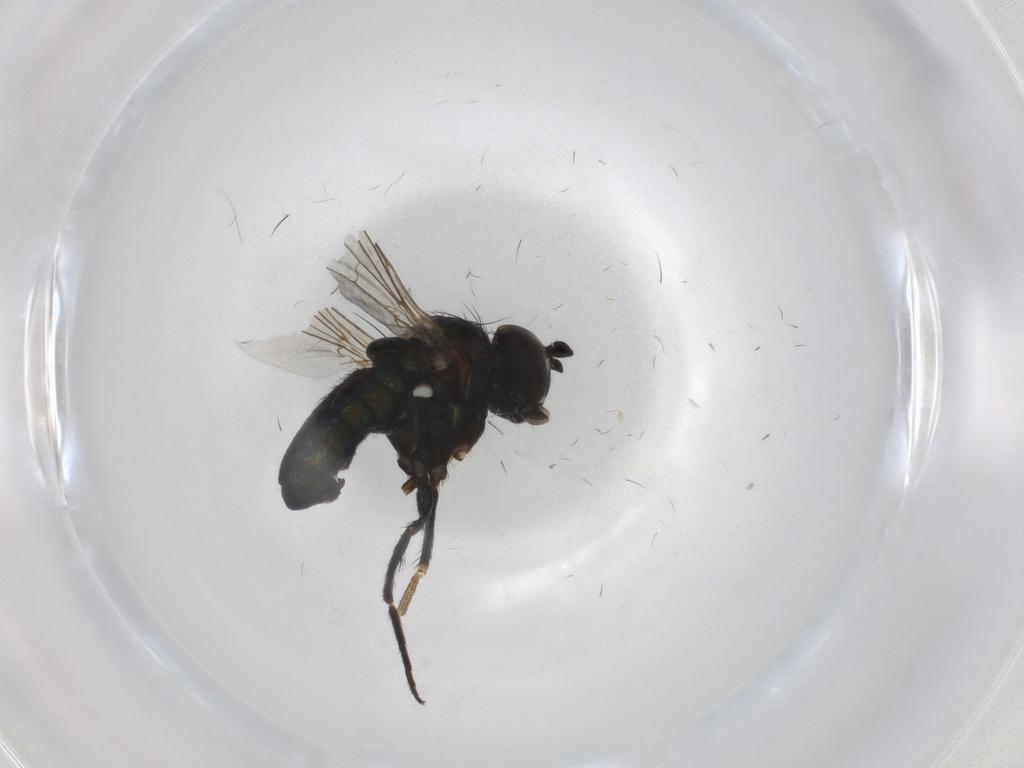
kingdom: Animalia
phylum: Arthropoda
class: Insecta
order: Diptera
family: Dolichopodidae
